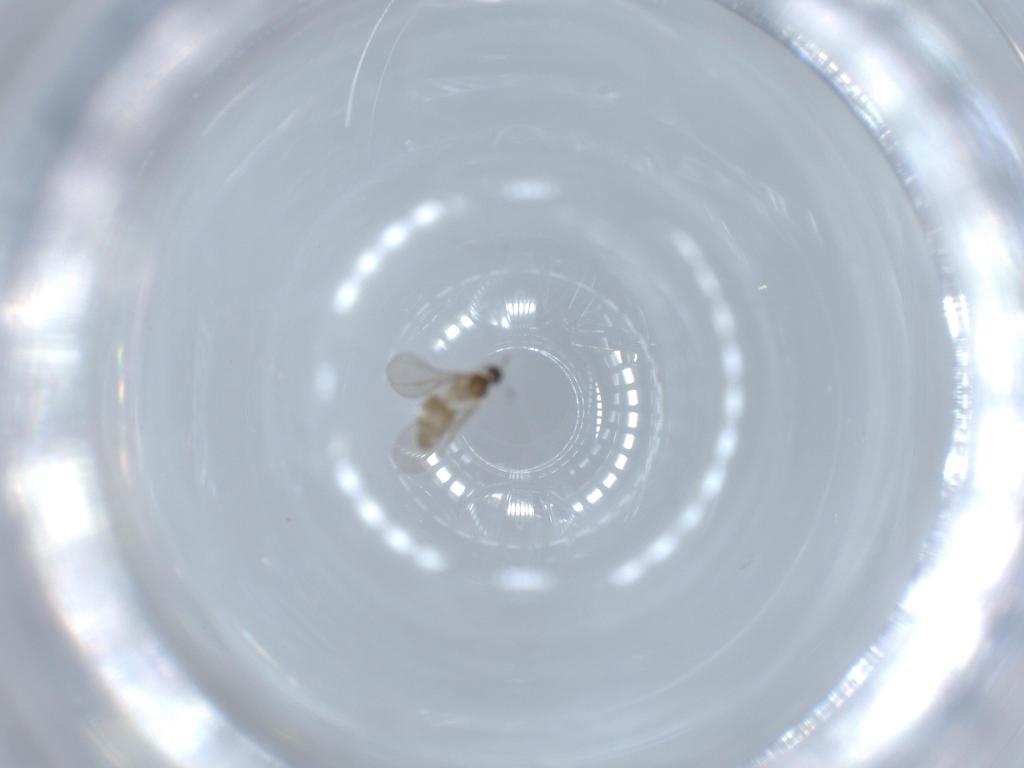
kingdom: Animalia
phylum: Arthropoda
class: Insecta
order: Diptera
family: Cecidomyiidae
